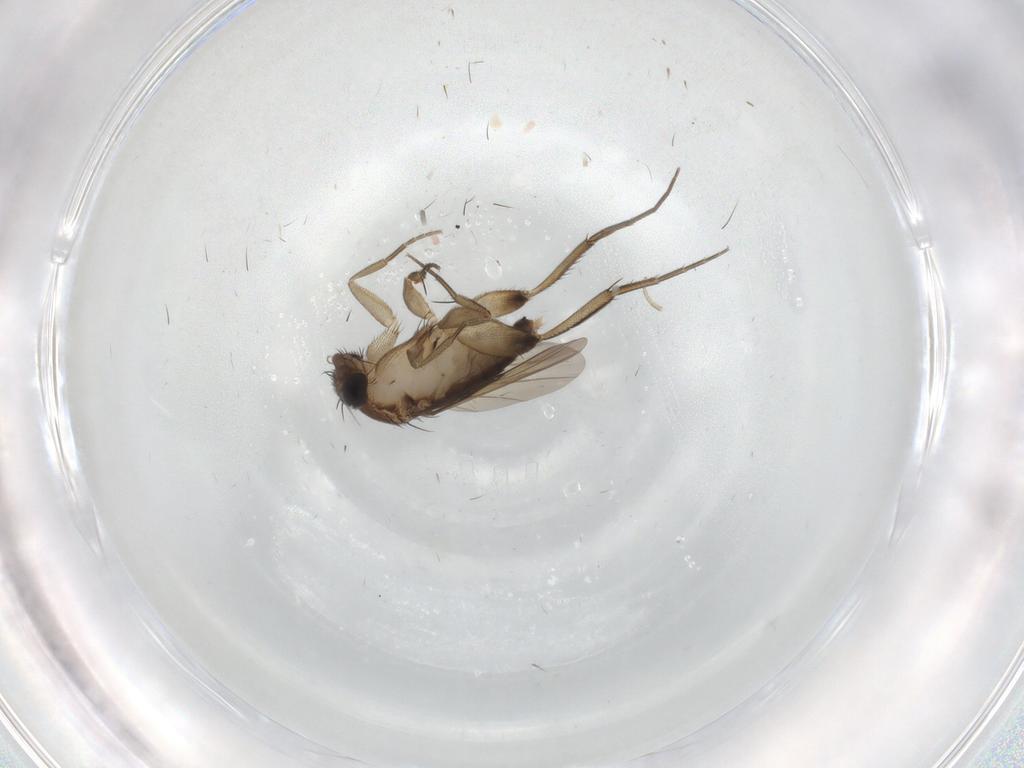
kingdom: Animalia
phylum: Arthropoda
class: Insecta
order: Diptera
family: Phoridae
